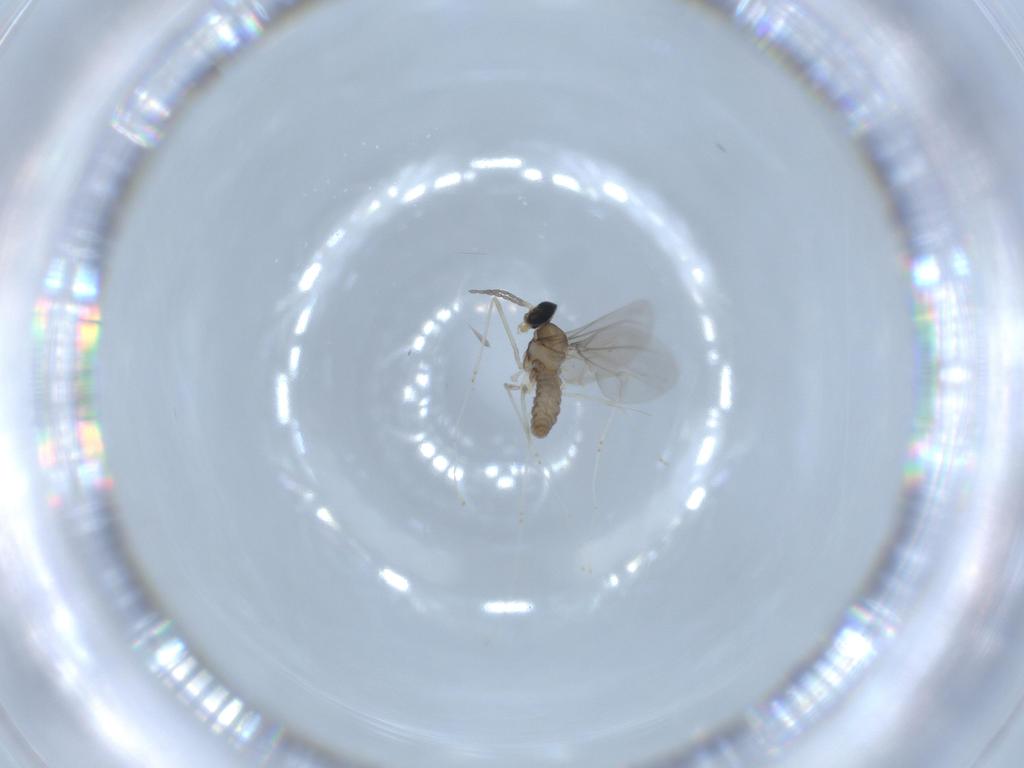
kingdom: Animalia
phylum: Arthropoda
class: Insecta
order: Diptera
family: Cecidomyiidae
